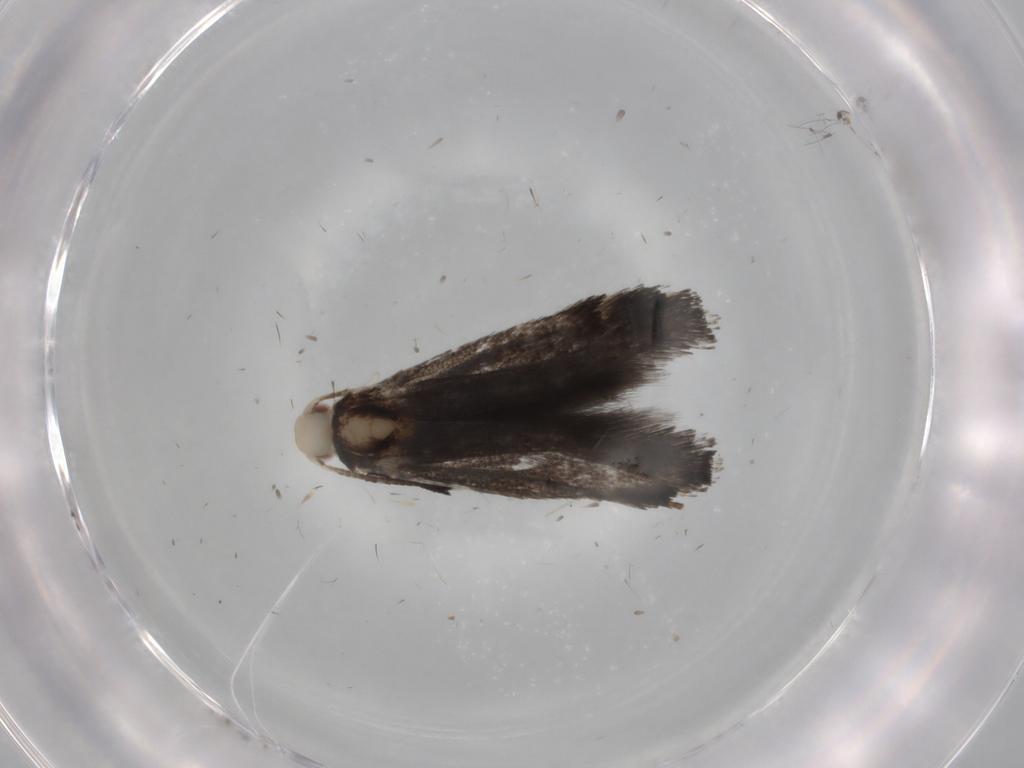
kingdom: Animalia
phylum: Arthropoda
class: Insecta
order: Lepidoptera
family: Gracillariidae
